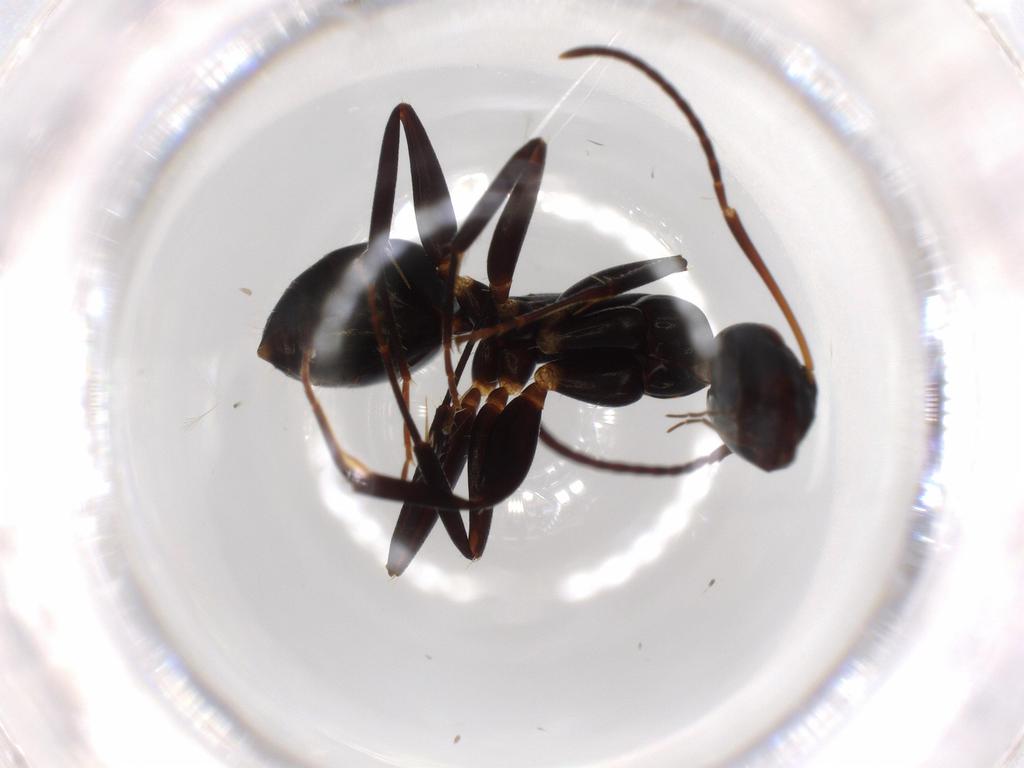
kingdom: Animalia
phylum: Arthropoda
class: Insecta
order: Hymenoptera
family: Formicidae
